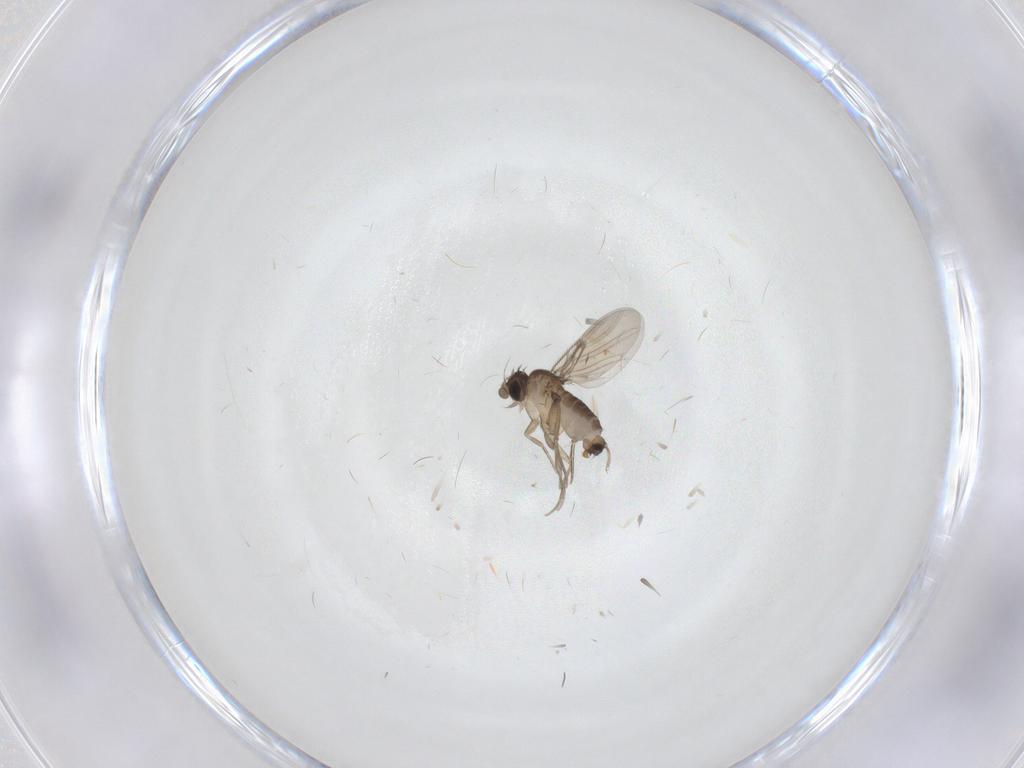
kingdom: Animalia
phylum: Arthropoda
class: Insecta
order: Diptera
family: Phoridae
